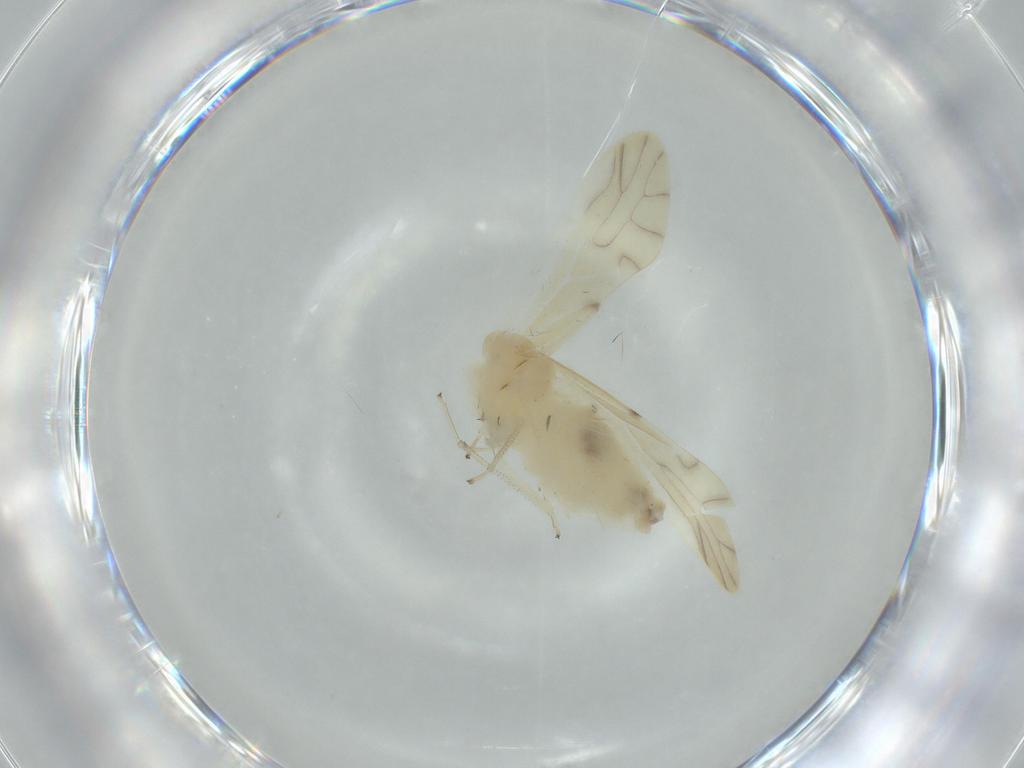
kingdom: Animalia
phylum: Arthropoda
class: Insecta
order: Psocodea
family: Caeciliusidae
